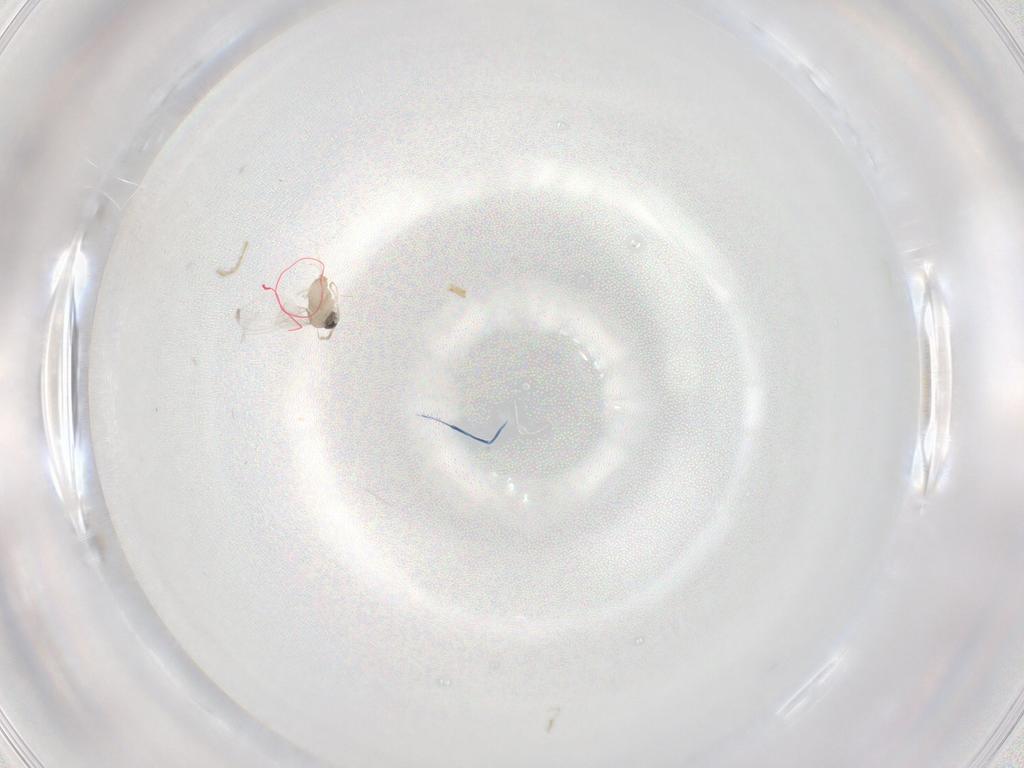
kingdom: Animalia
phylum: Arthropoda
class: Insecta
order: Diptera
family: Cecidomyiidae
